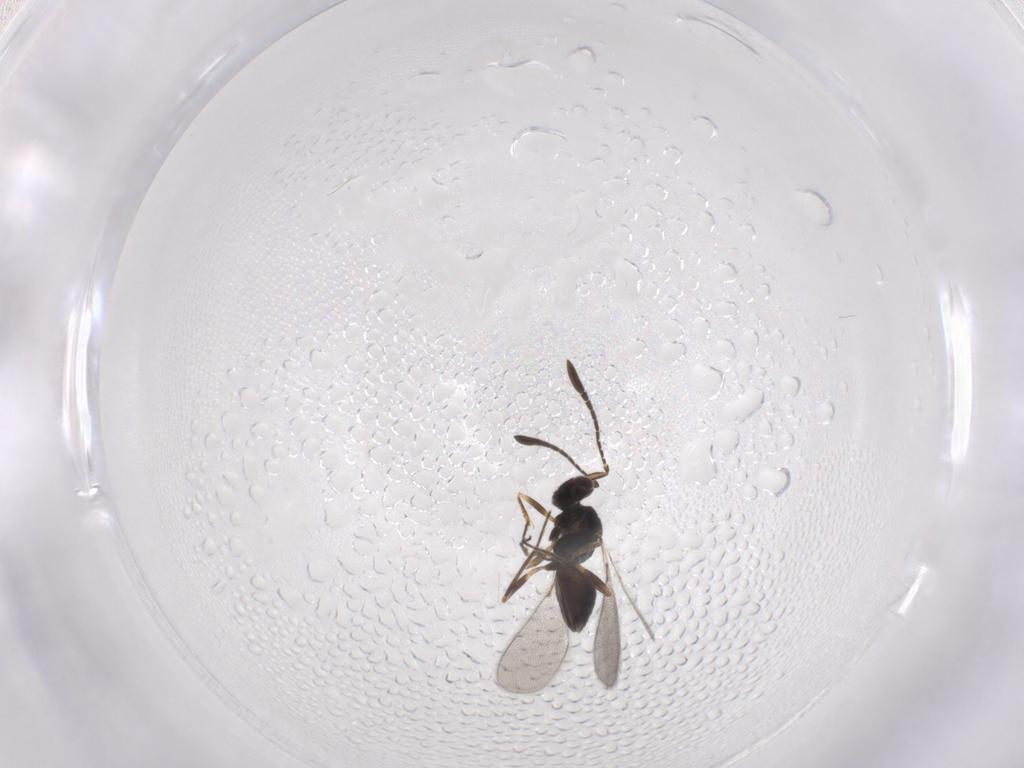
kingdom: Animalia
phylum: Arthropoda
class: Insecta
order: Hymenoptera
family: Mymaridae
